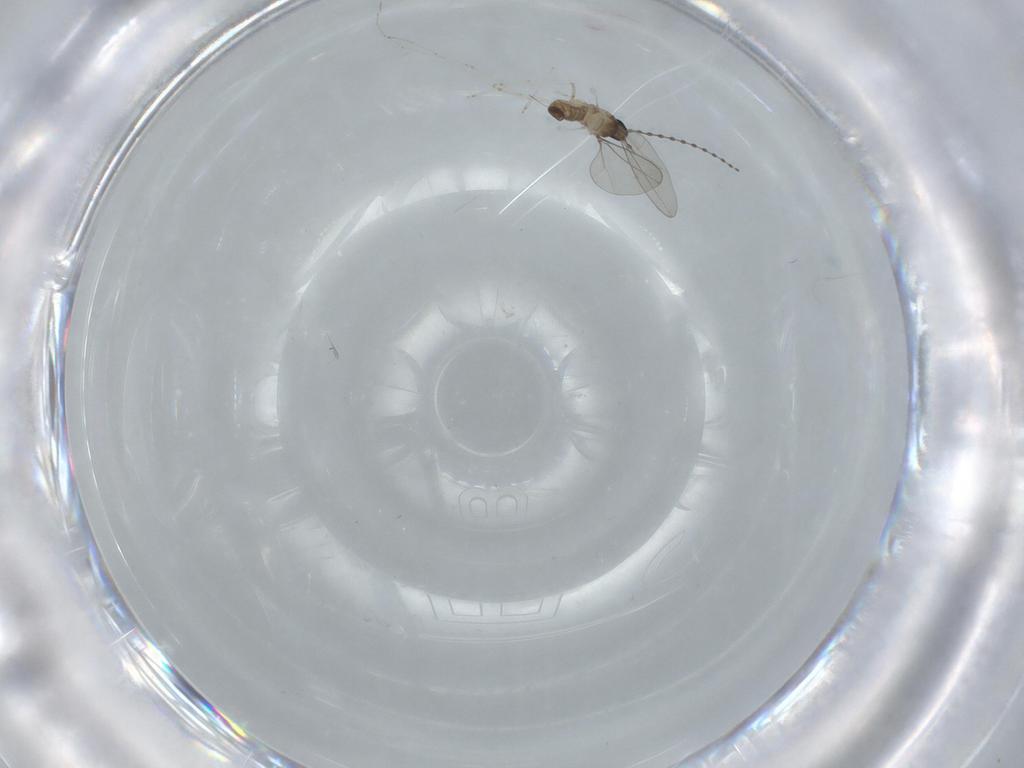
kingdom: Animalia
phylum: Arthropoda
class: Insecta
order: Diptera
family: Cecidomyiidae
